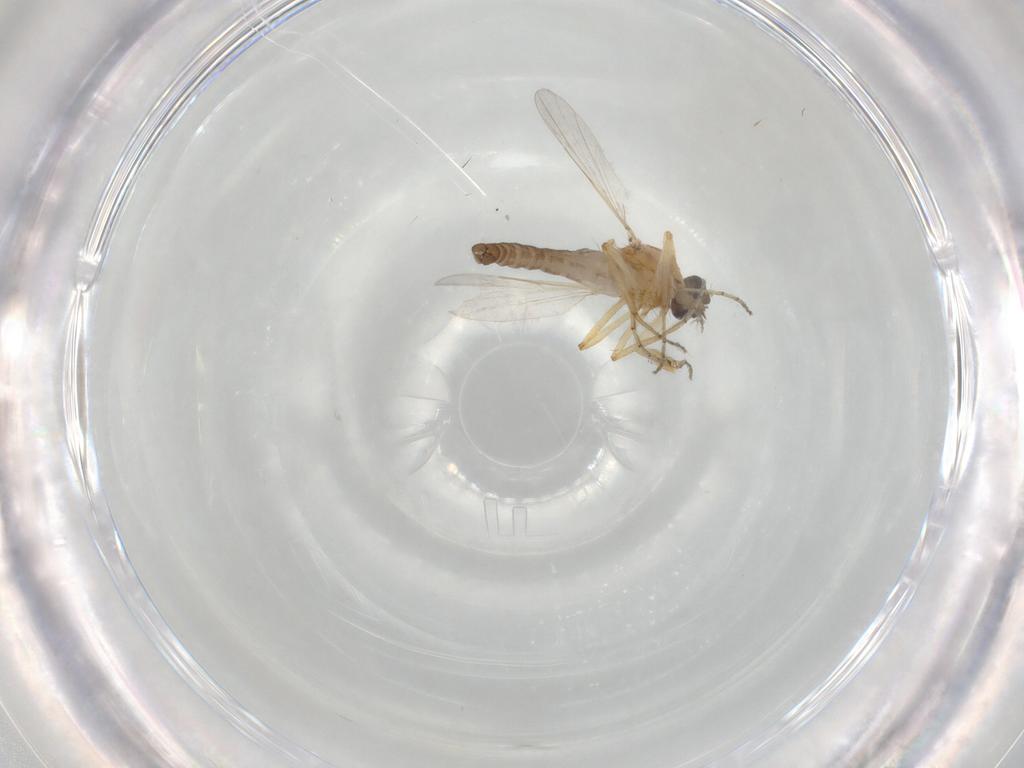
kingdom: Animalia
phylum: Arthropoda
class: Insecta
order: Diptera
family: Ceratopogonidae
